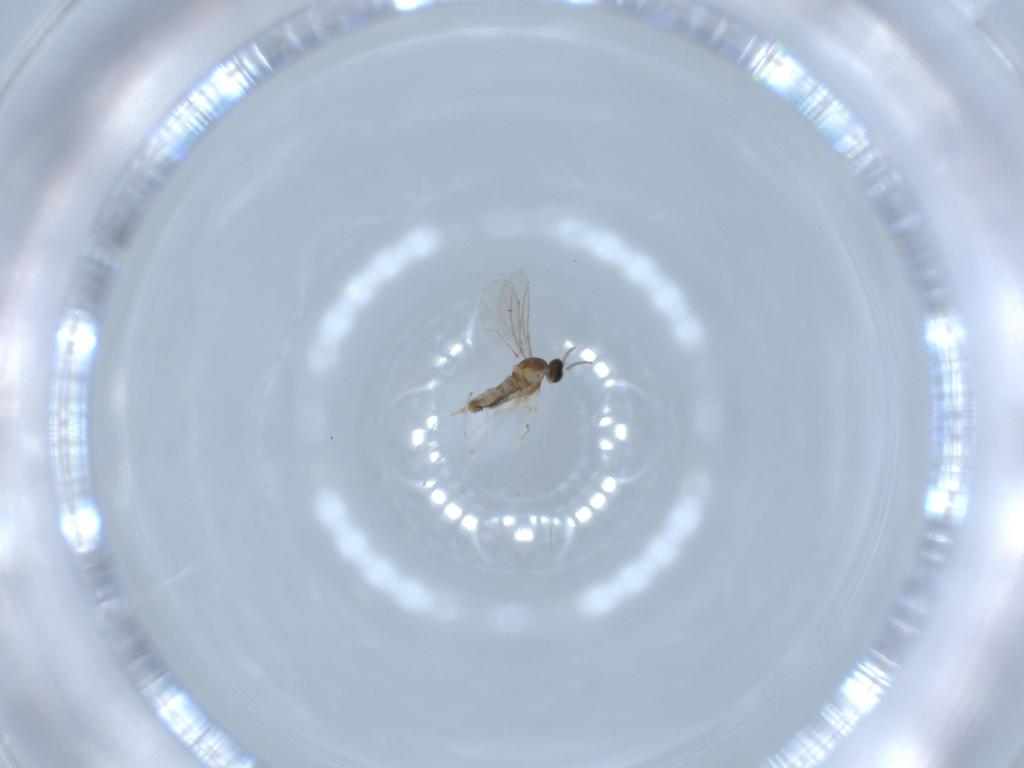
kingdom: Animalia
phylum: Arthropoda
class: Insecta
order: Diptera
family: Cecidomyiidae
